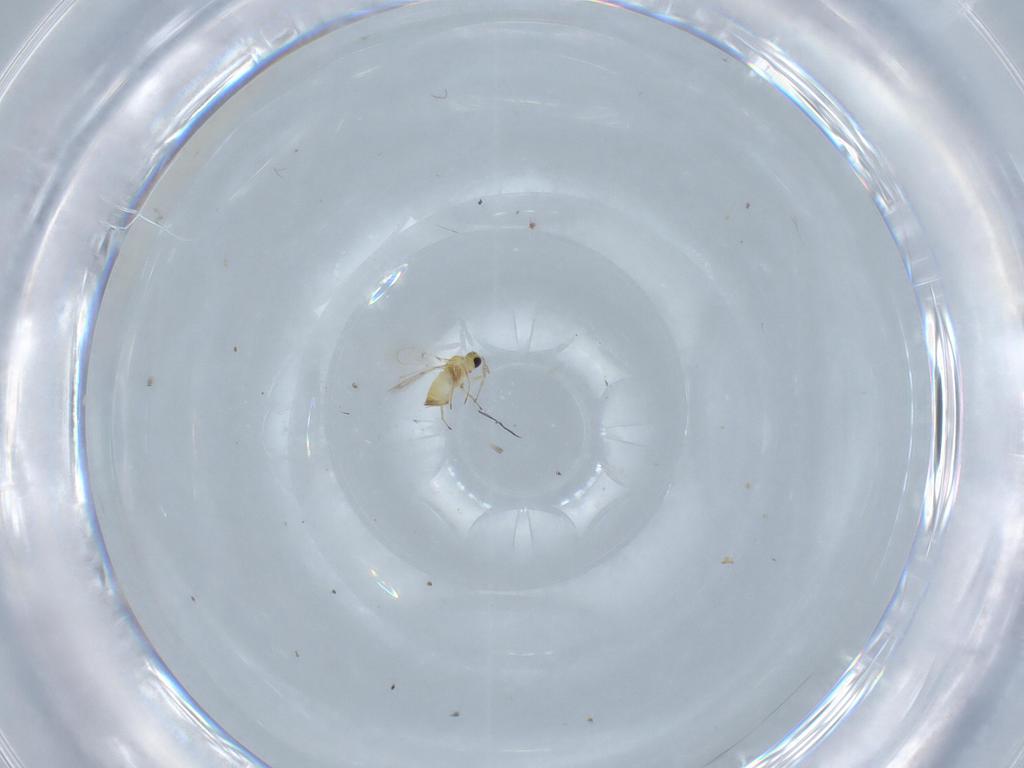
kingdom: Animalia
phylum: Arthropoda
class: Insecta
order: Hymenoptera
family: Trichogrammatidae
